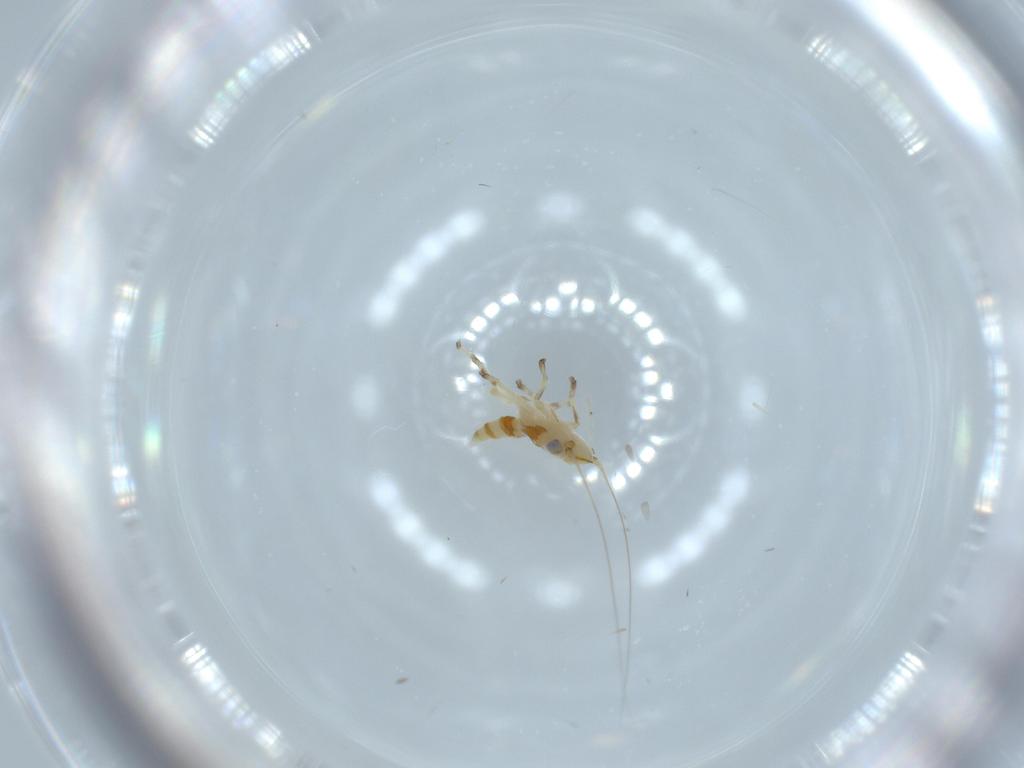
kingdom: Animalia
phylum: Arthropoda
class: Insecta
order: Hemiptera
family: Cicadellidae
